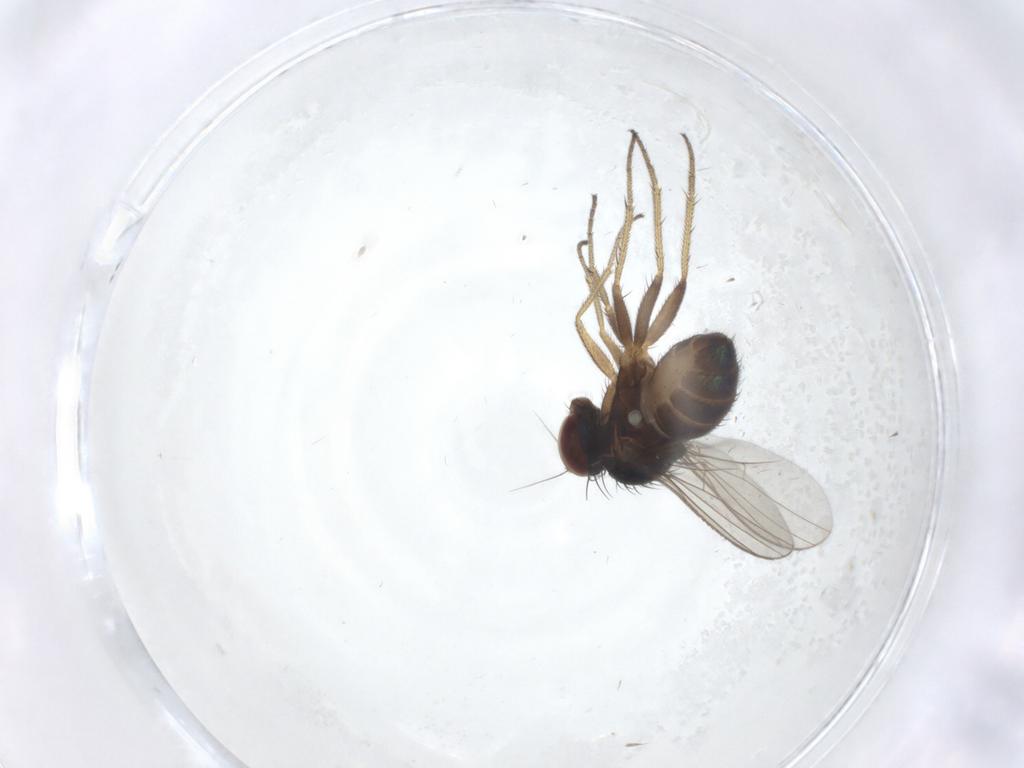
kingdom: Animalia
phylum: Arthropoda
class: Insecta
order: Diptera
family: Dolichopodidae
